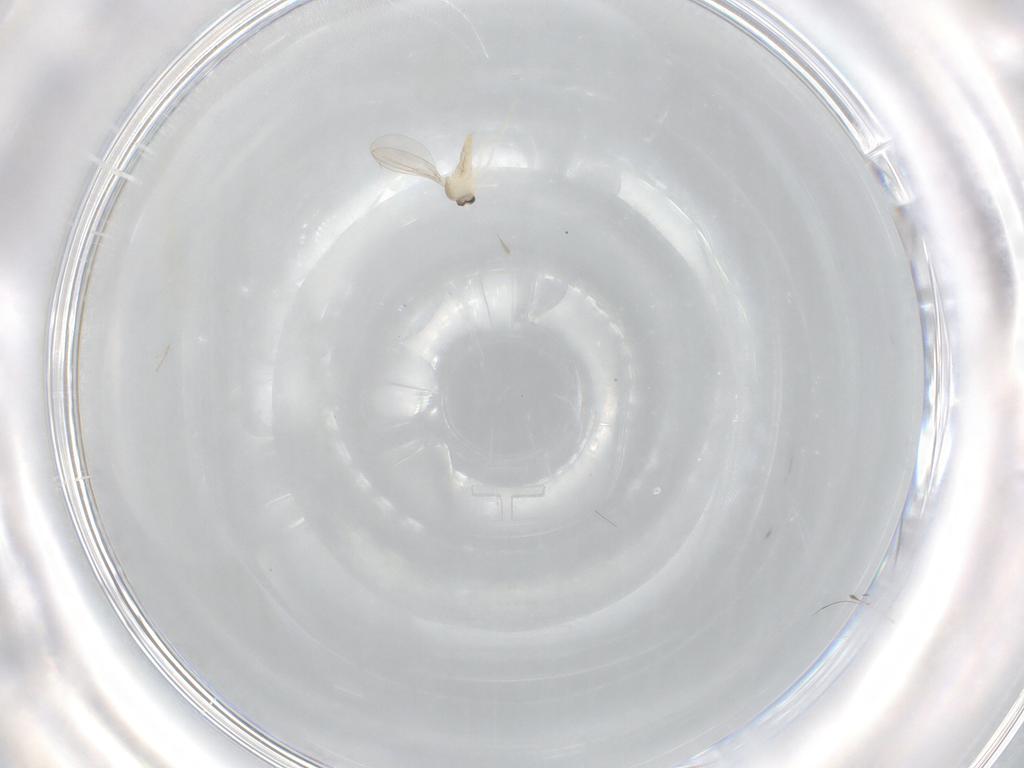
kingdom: Animalia
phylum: Arthropoda
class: Insecta
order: Diptera
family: Cecidomyiidae
